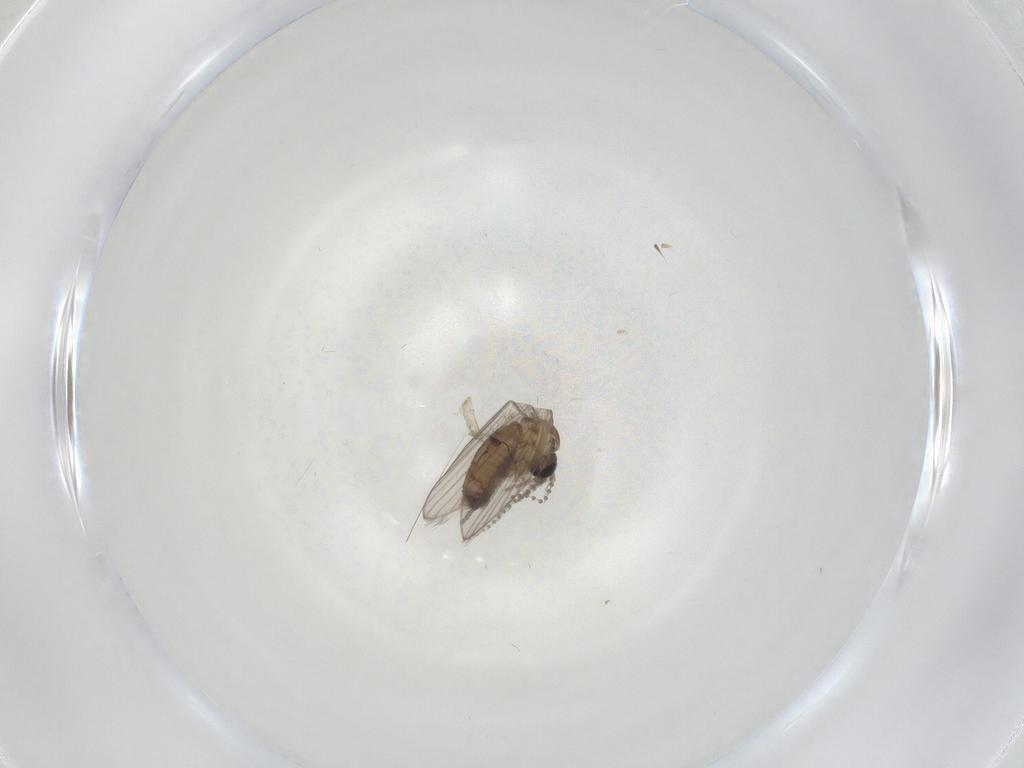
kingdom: Animalia
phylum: Arthropoda
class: Insecta
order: Diptera
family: Psychodidae
